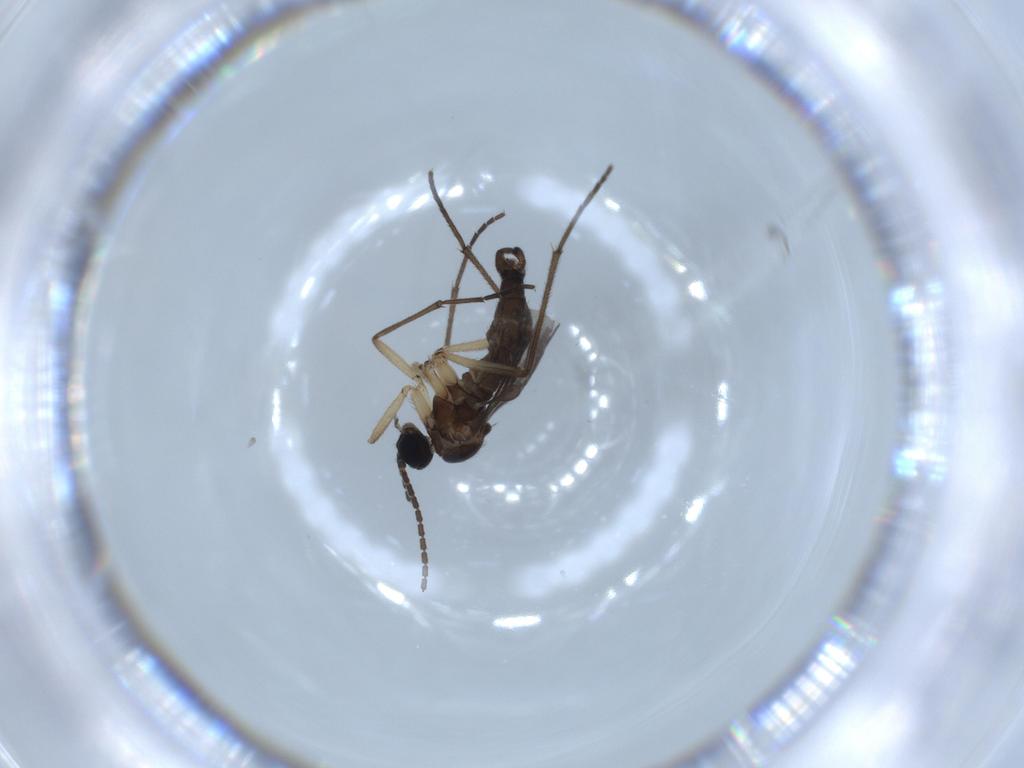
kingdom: Animalia
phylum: Arthropoda
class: Insecta
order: Diptera
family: Sciaridae
